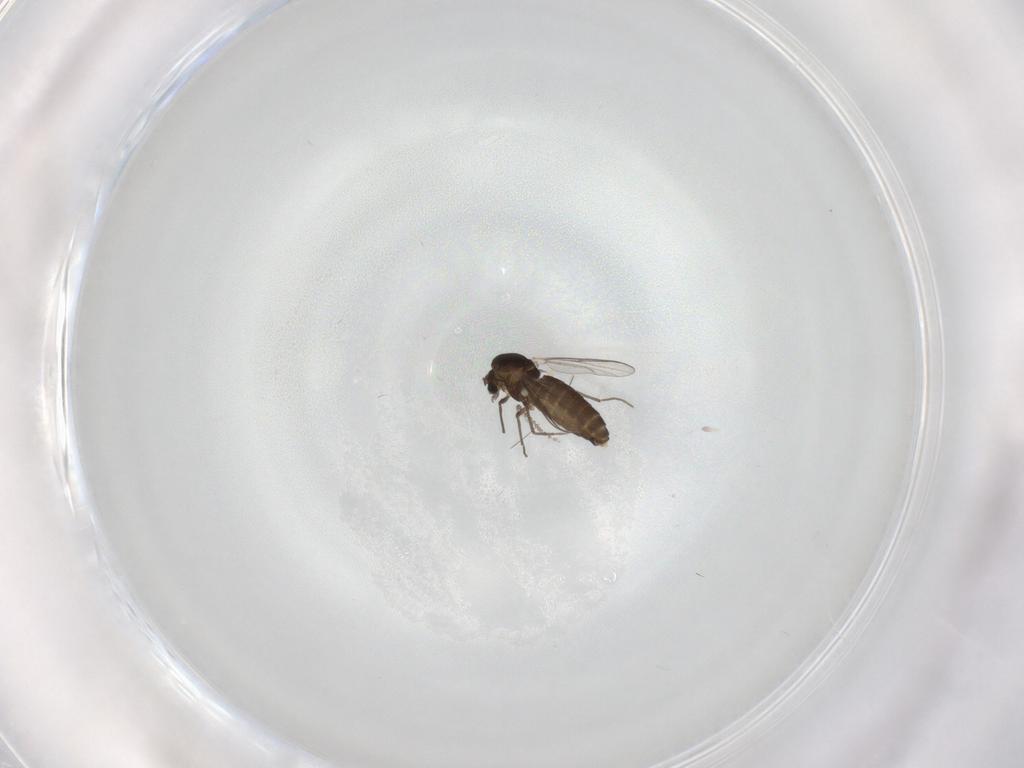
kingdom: Animalia
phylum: Arthropoda
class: Insecta
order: Diptera
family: Chironomidae
